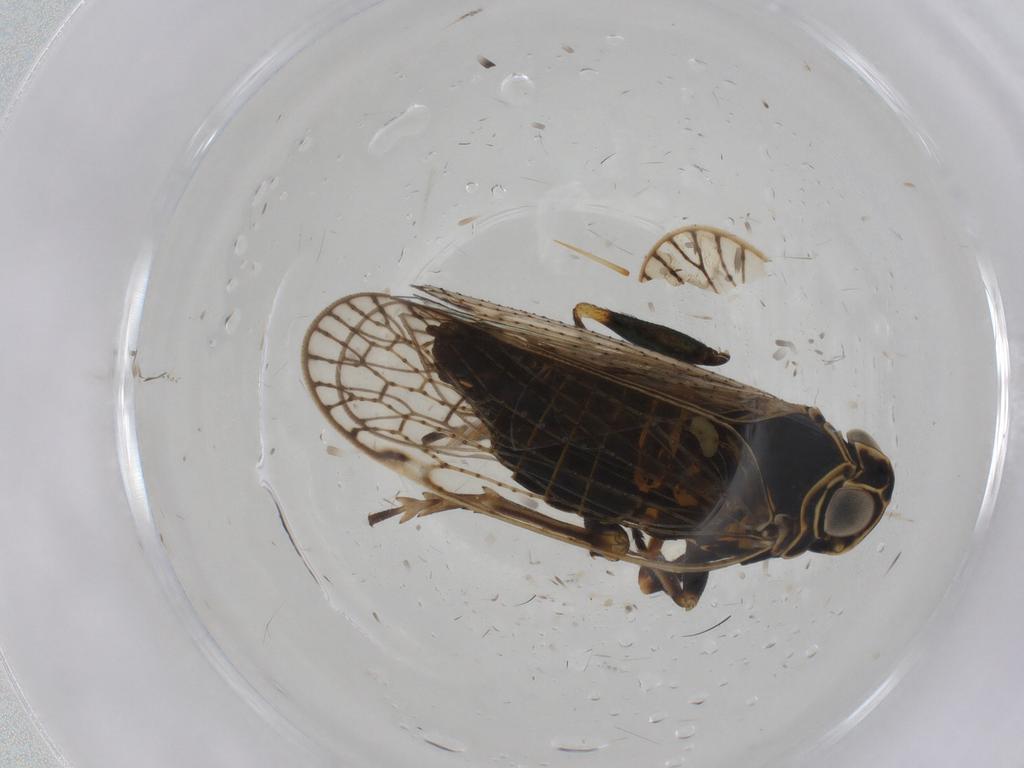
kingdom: Animalia
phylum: Arthropoda
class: Insecta
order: Hemiptera
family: Cixiidae
